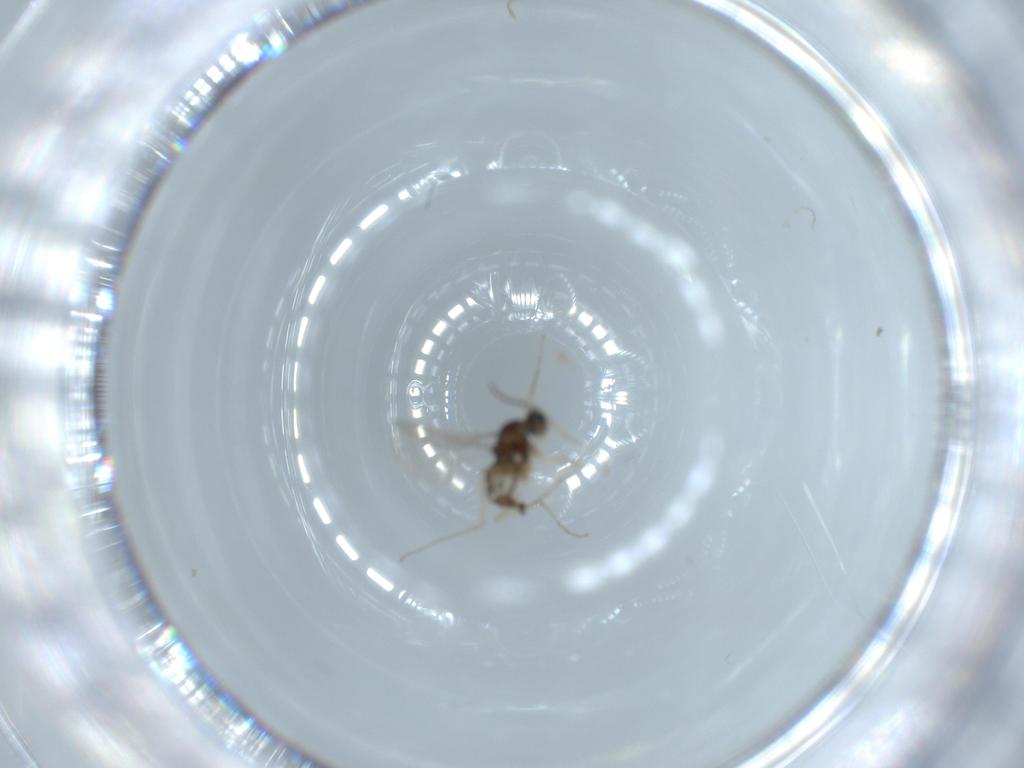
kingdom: Animalia
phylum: Arthropoda
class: Insecta
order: Diptera
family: Cecidomyiidae
